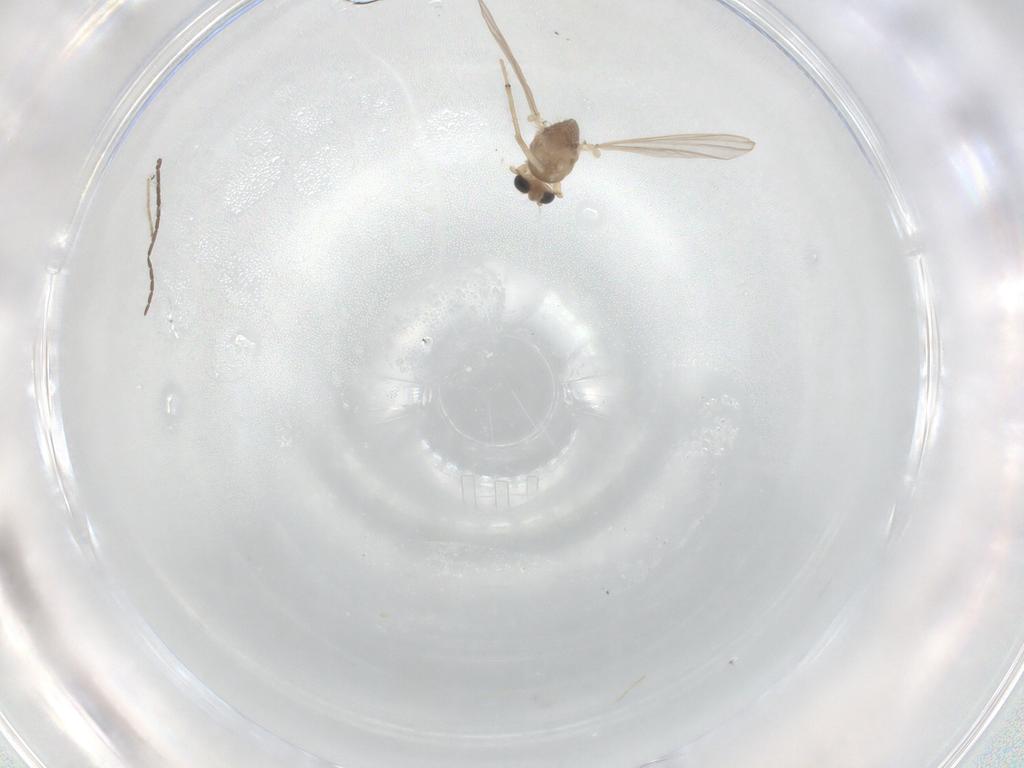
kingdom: Animalia
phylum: Arthropoda
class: Insecta
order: Diptera
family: Chironomidae
